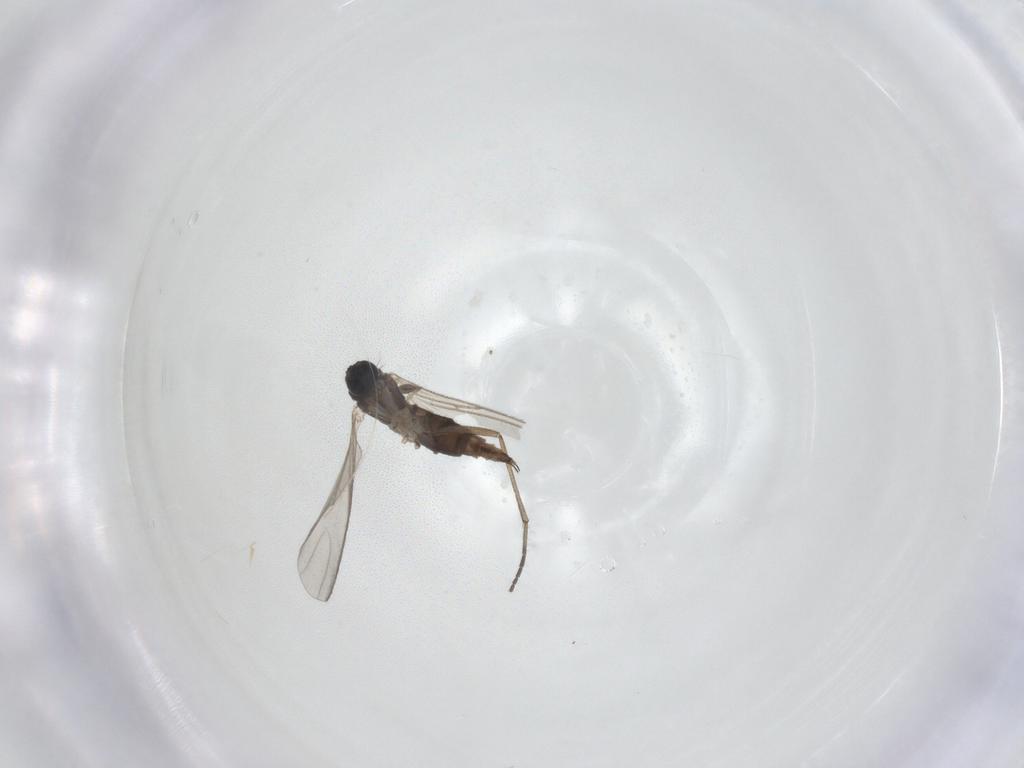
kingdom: Animalia
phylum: Arthropoda
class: Insecta
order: Diptera
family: Sciaridae
